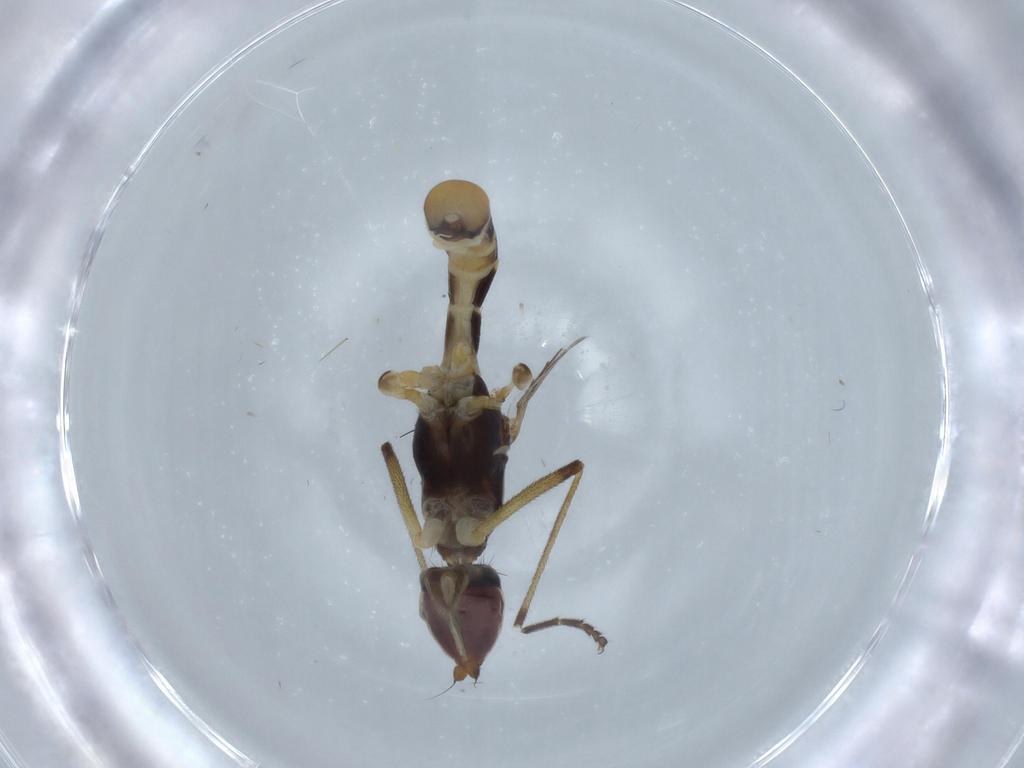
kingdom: Animalia
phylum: Arthropoda
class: Insecta
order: Diptera
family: Micropezidae
